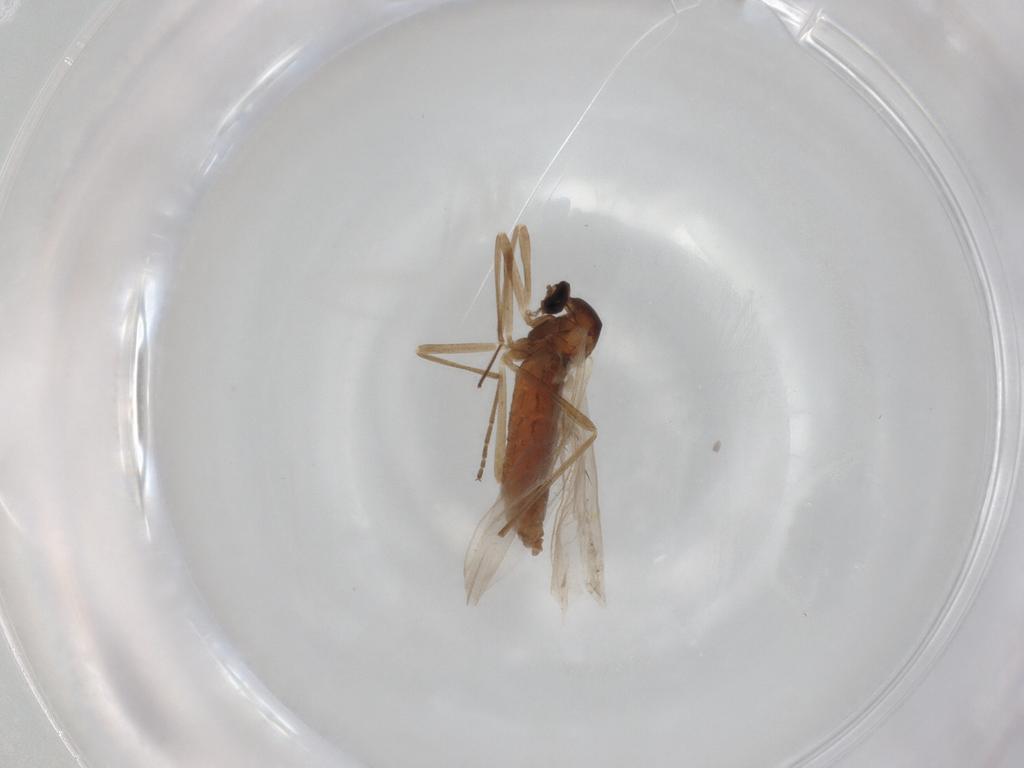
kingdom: Animalia
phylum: Arthropoda
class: Insecta
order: Diptera
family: Cecidomyiidae
